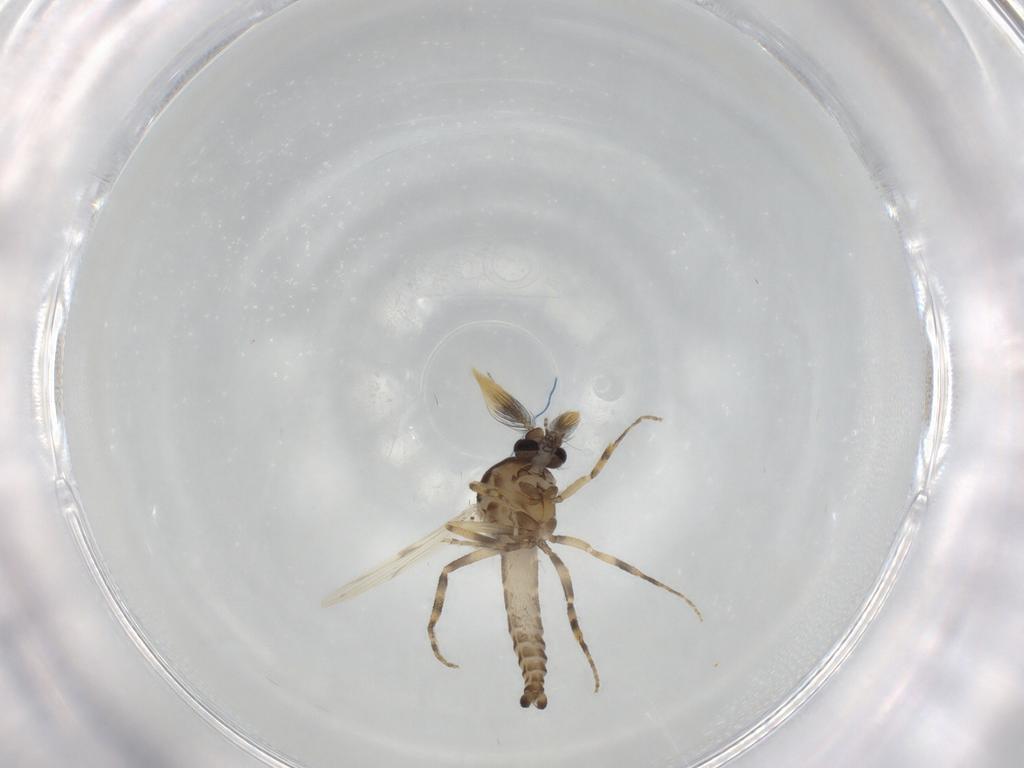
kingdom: Animalia
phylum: Arthropoda
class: Insecta
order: Diptera
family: Ceratopogonidae
